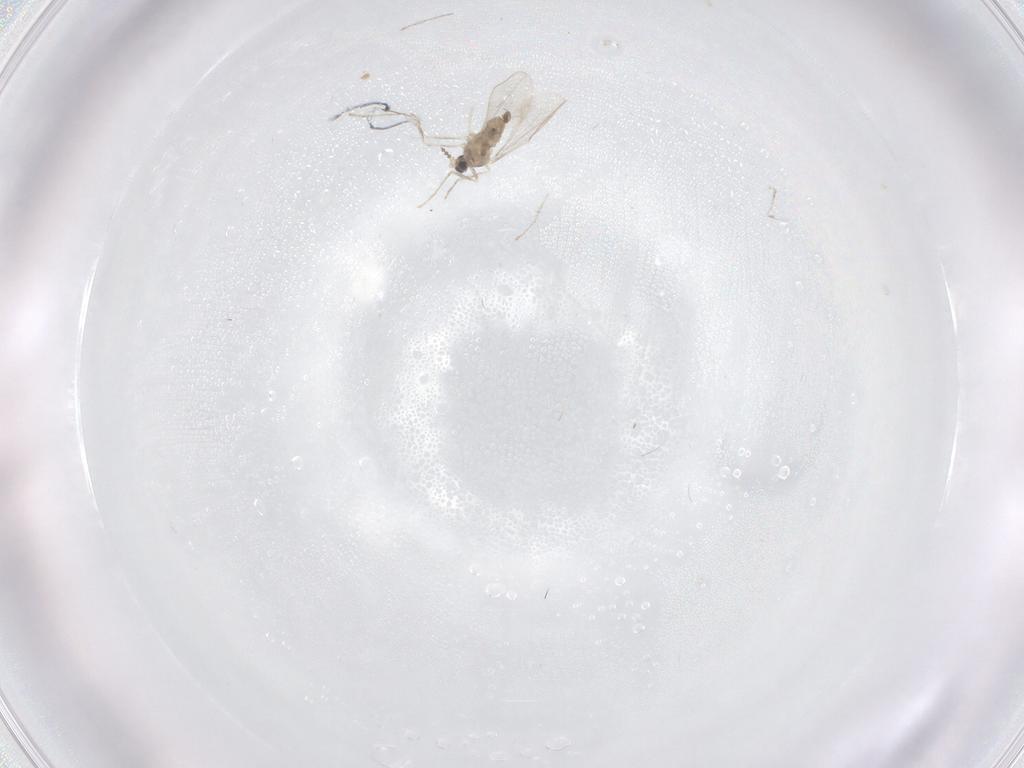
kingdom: Animalia
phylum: Arthropoda
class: Insecta
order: Diptera
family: Cecidomyiidae
